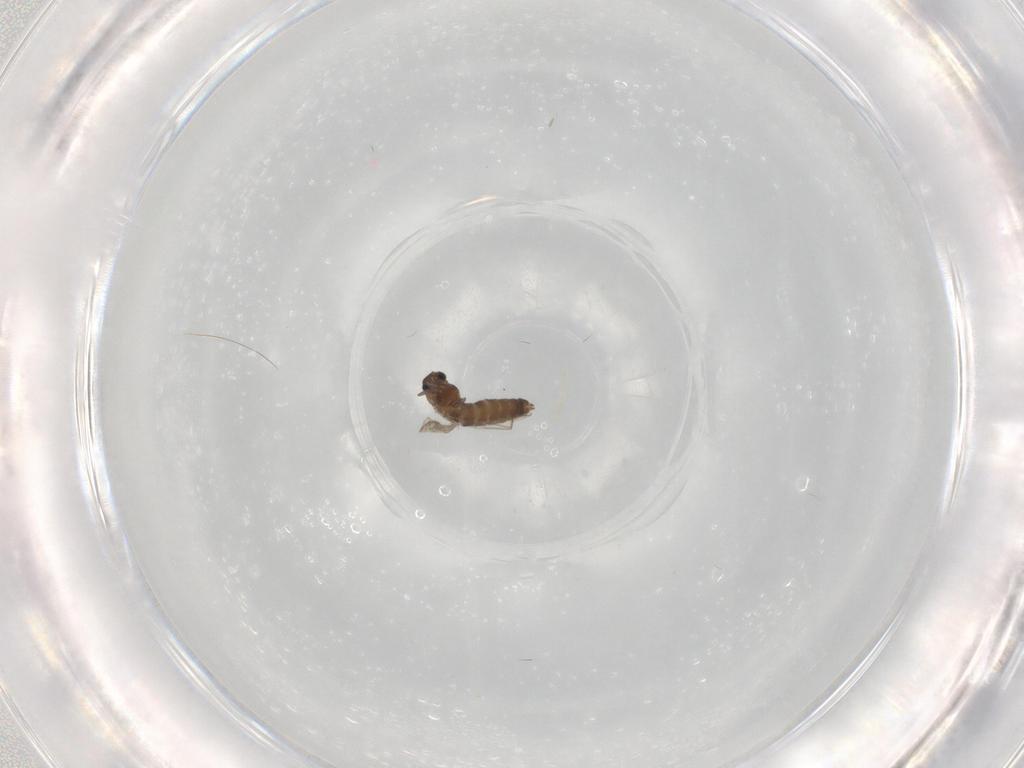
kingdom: Animalia
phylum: Arthropoda
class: Insecta
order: Diptera
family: Chironomidae
